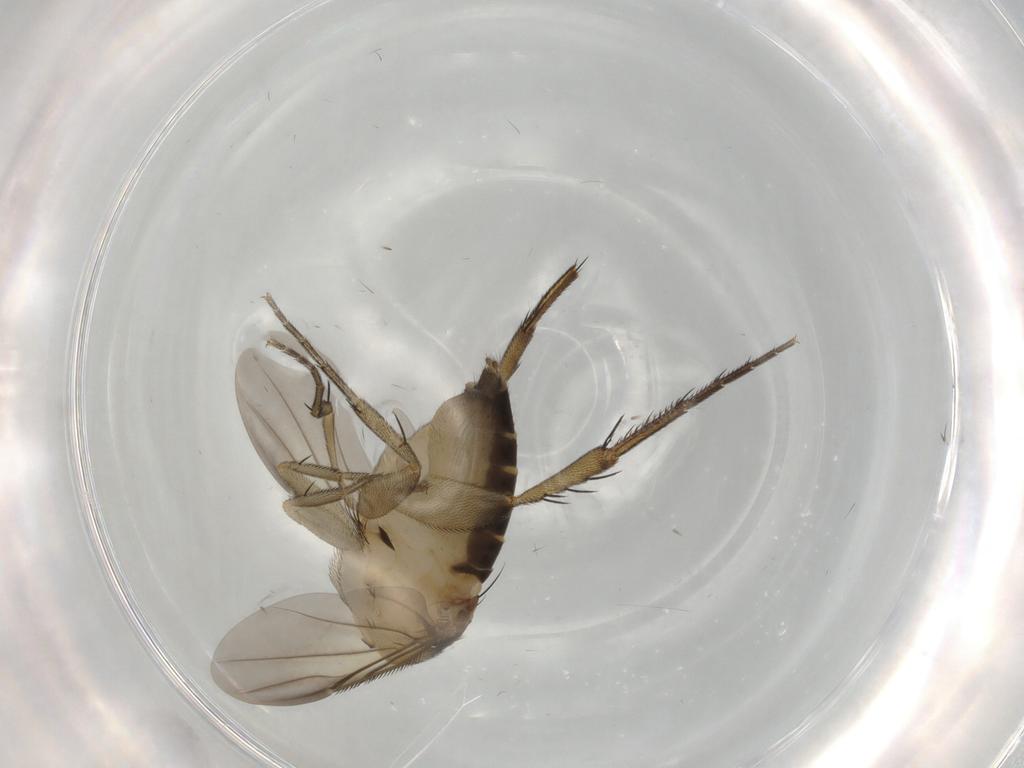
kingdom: Animalia
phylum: Arthropoda
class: Insecta
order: Diptera
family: Phoridae
